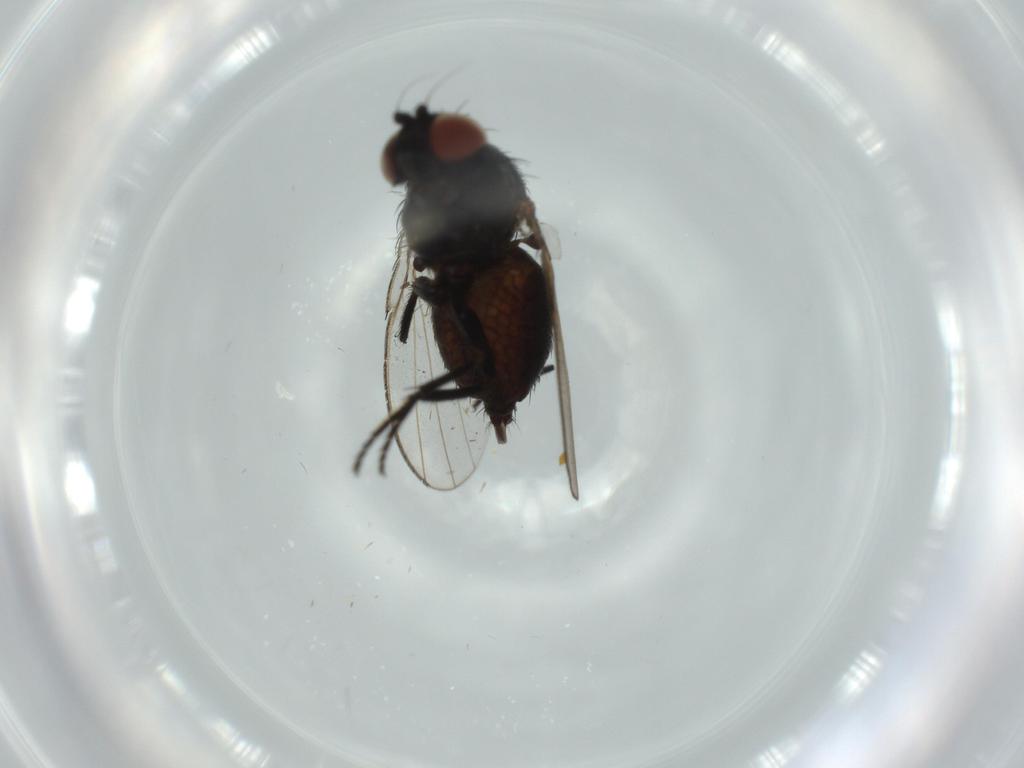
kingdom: Animalia
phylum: Arthropoda
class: Insecta
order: Diptera
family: Milichiidae
